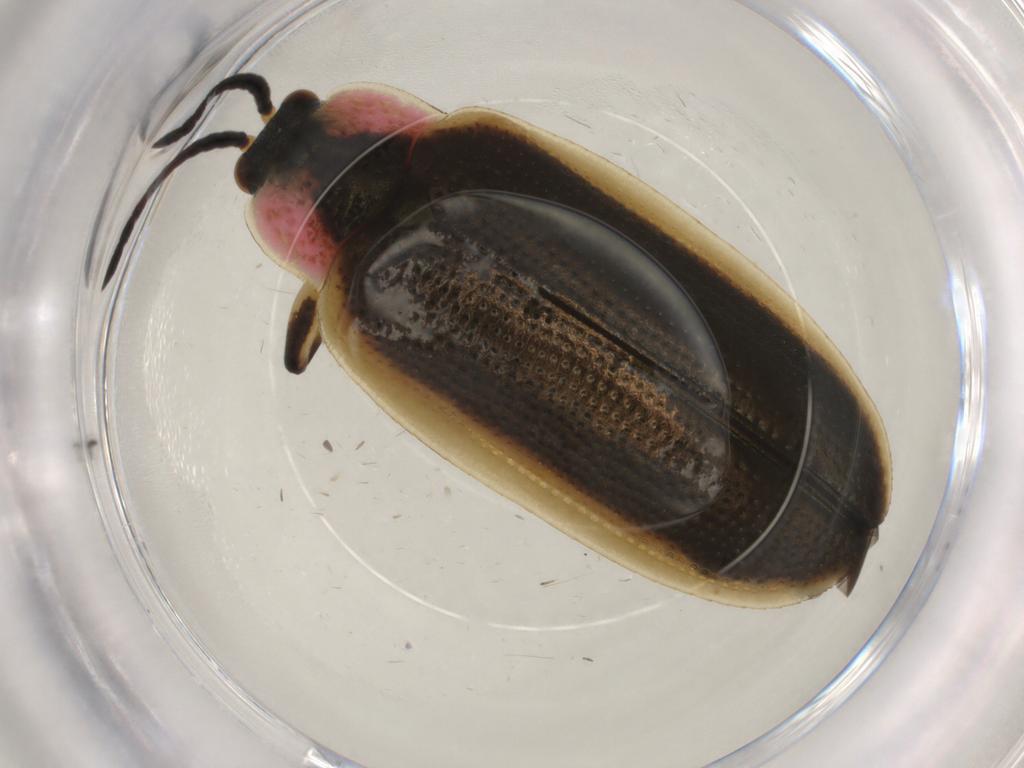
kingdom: Animalia
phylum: Arthropoda
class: Insecta
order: Coleoptera
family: Chrysomelidae
